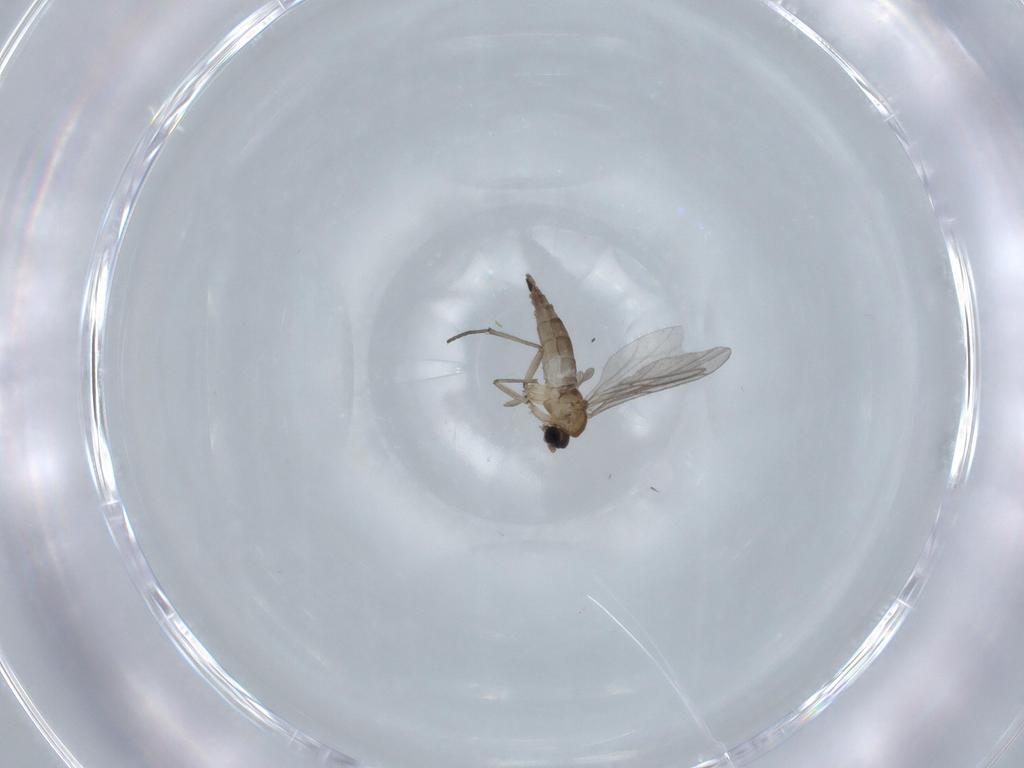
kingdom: Animalia
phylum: Arthropoda
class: Insecta
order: Diptera
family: Sciaridae
